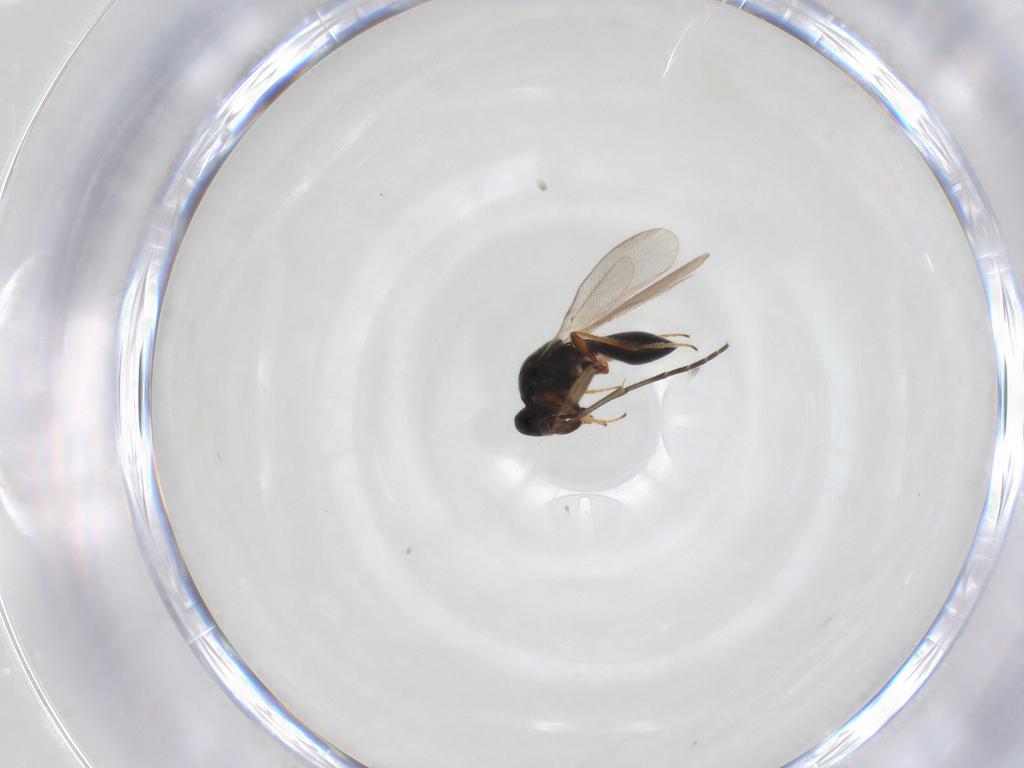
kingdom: Animalia
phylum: Arthropoda
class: Insecta
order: Diptera
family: Sciaridae
